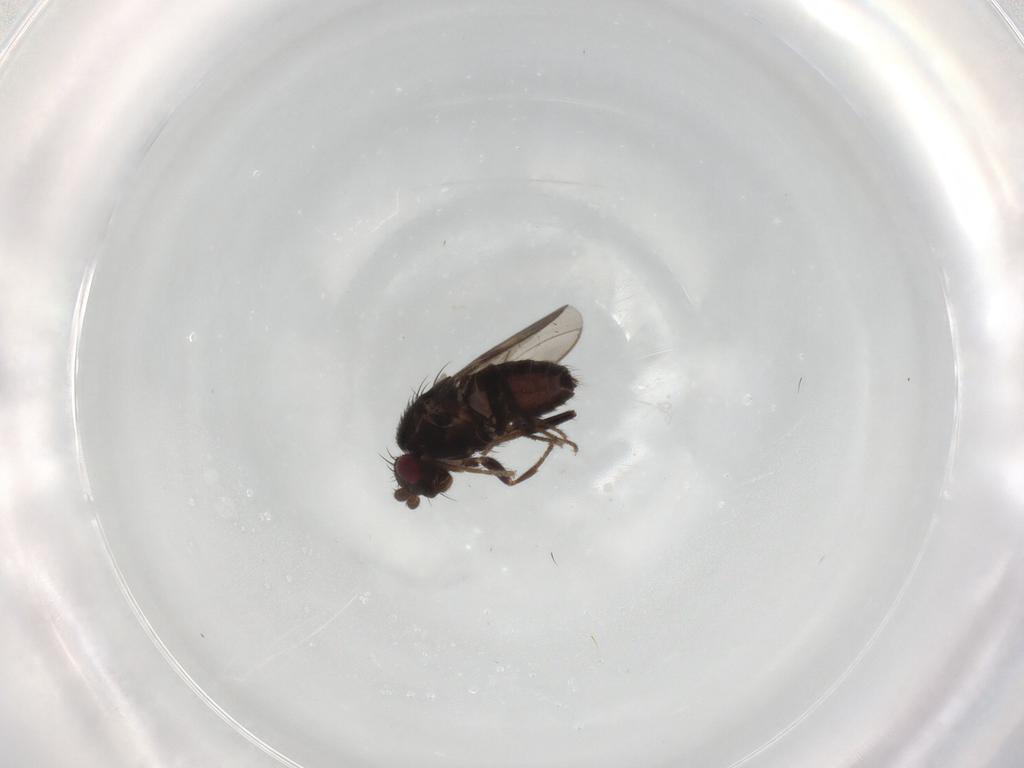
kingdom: Animalia
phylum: Arthropoda
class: Insecta
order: Diptera
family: Sphaeroceridae
